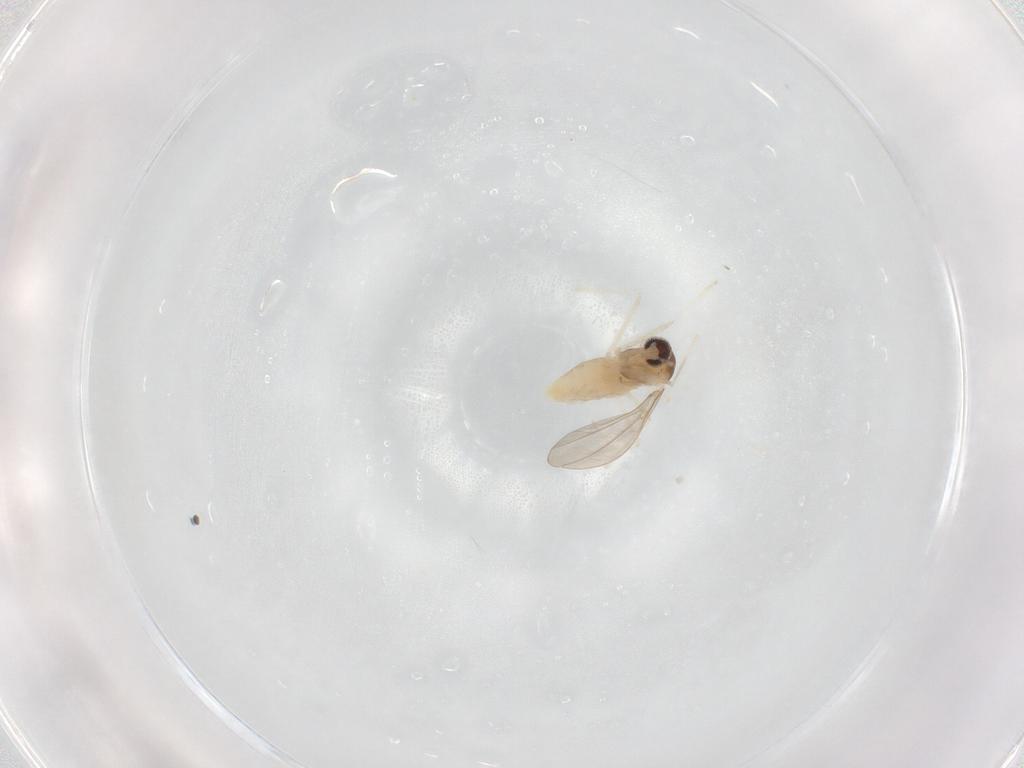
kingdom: Animalia
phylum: Arthropoda
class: Insecta
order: Diptera
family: Cecidomyiidae
